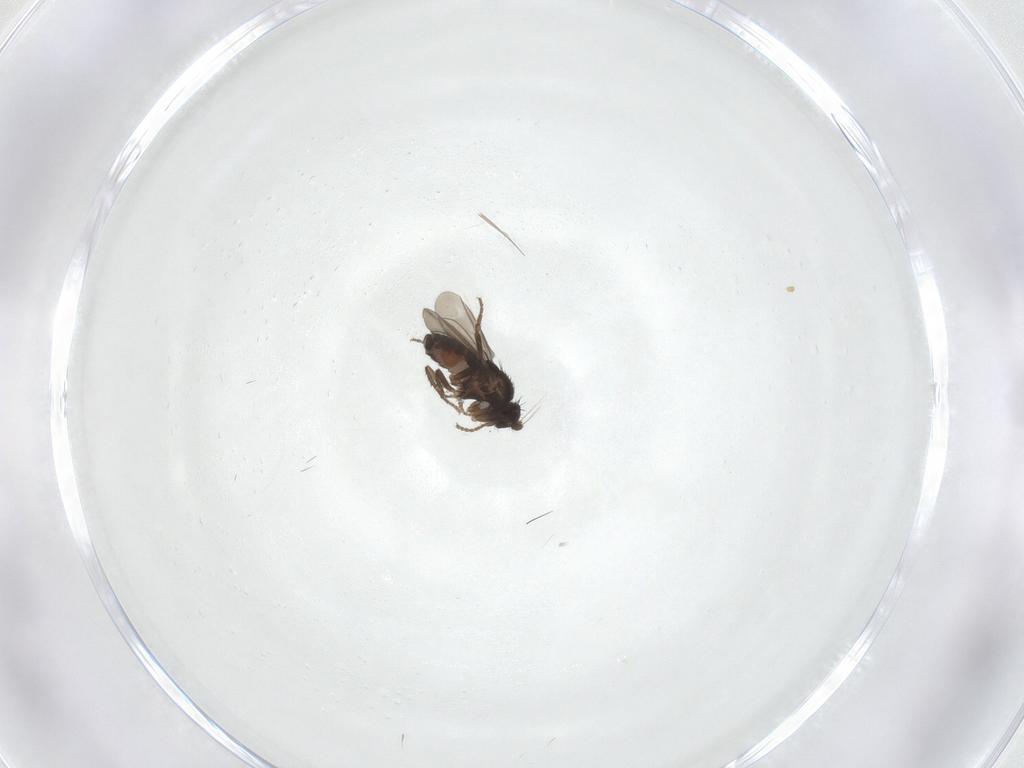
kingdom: Animalia
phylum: Arthropoda
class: Insecta
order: Diptera
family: Sphaeroceridae
